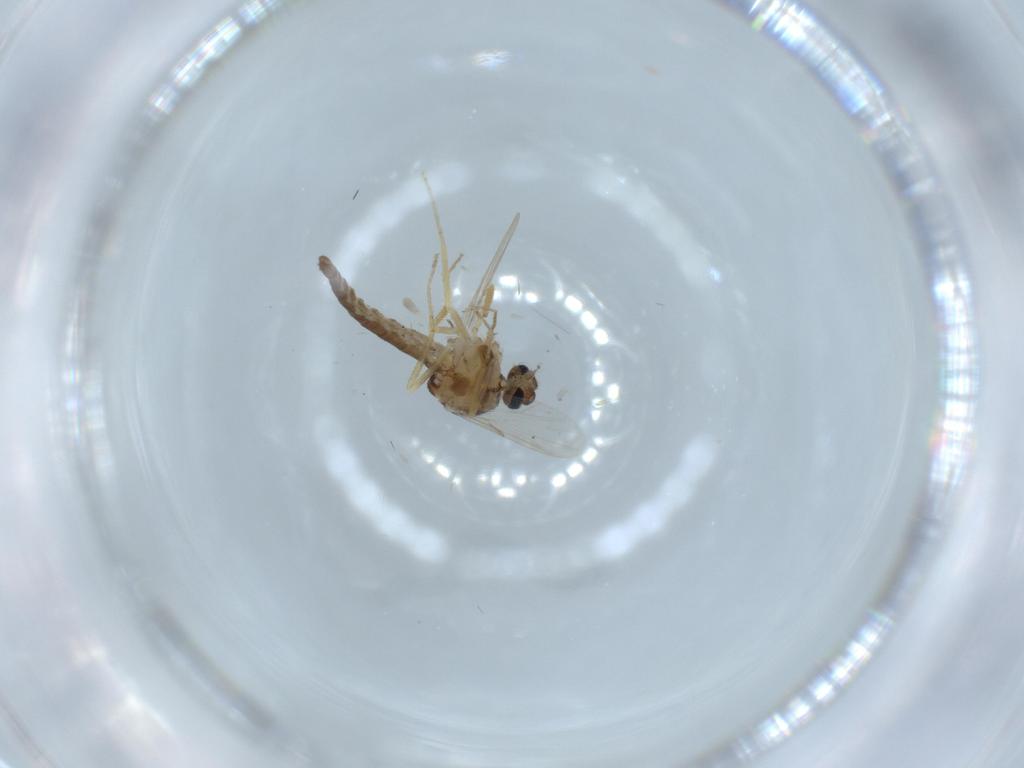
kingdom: Animalia
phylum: Arthropoda
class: Insecta
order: Diptera
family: Ceratopogonidae
